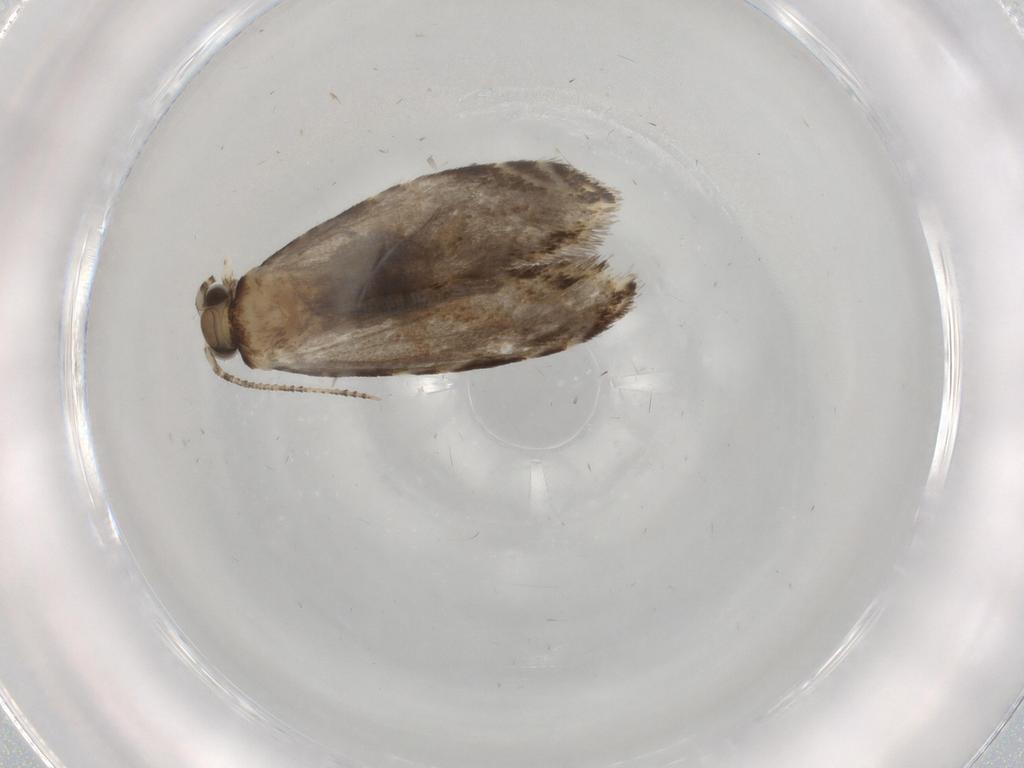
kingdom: Animalia
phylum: Arthropoda
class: Insecta
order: Lepidoptera
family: Tineidae
